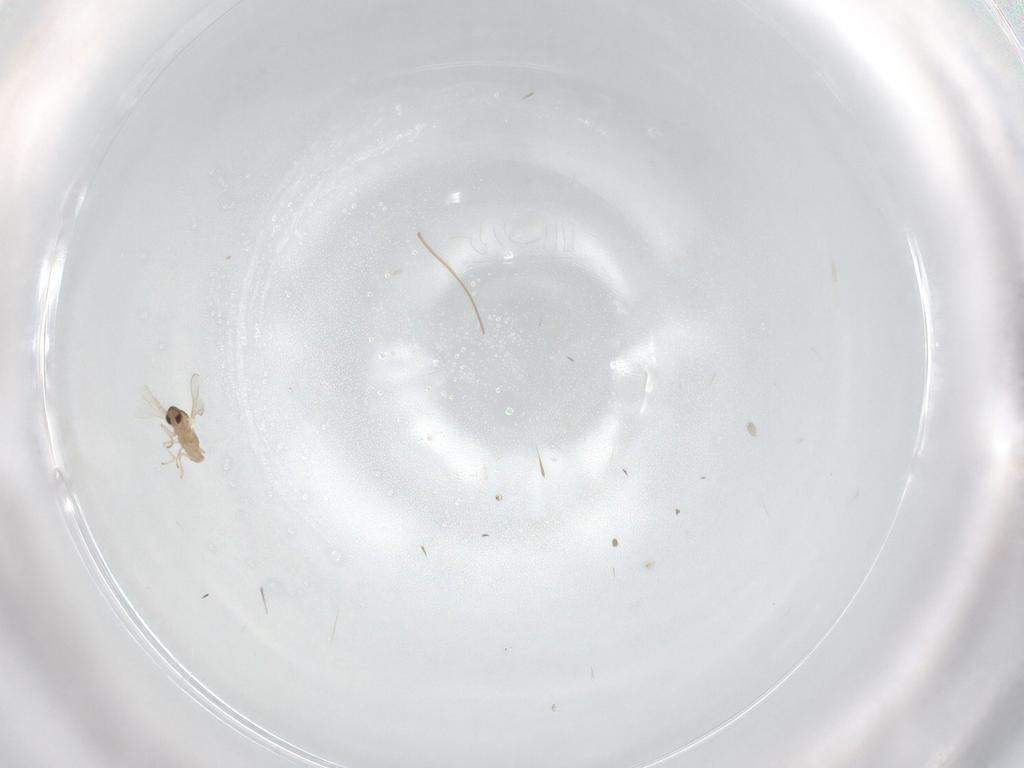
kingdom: Animalia
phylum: Arthropoda
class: Insecta
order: Diptera
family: Cecidomyiidae
